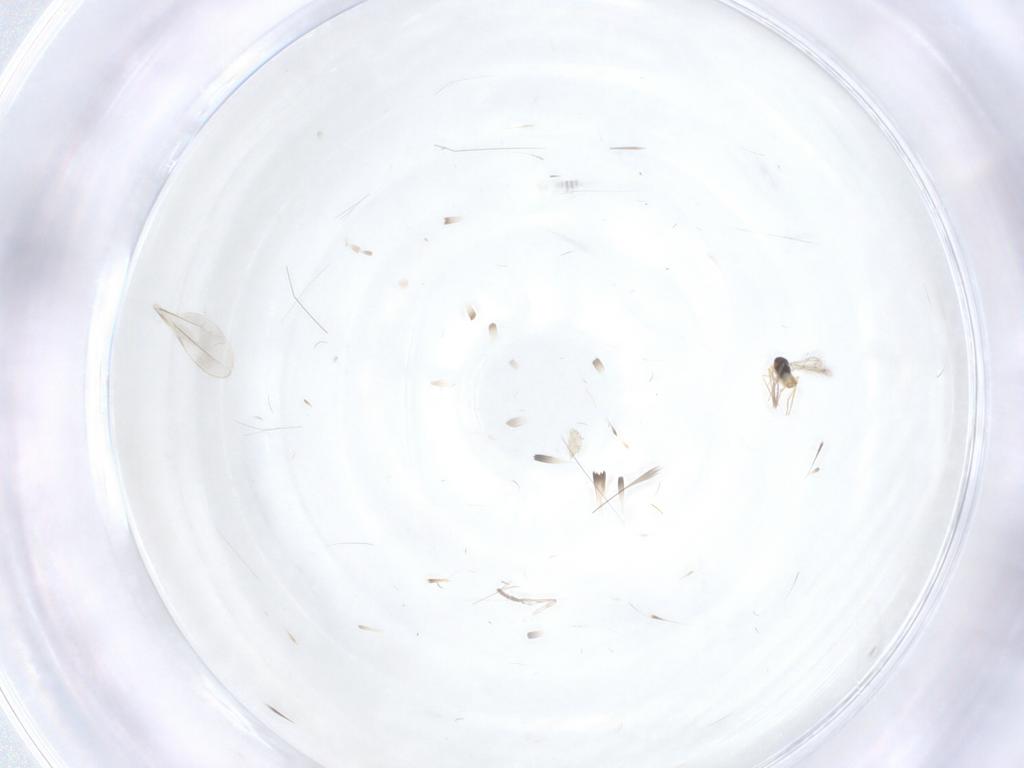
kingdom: Animalia
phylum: Arthropoda
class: Insecta
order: Diptera
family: Psychodidae
